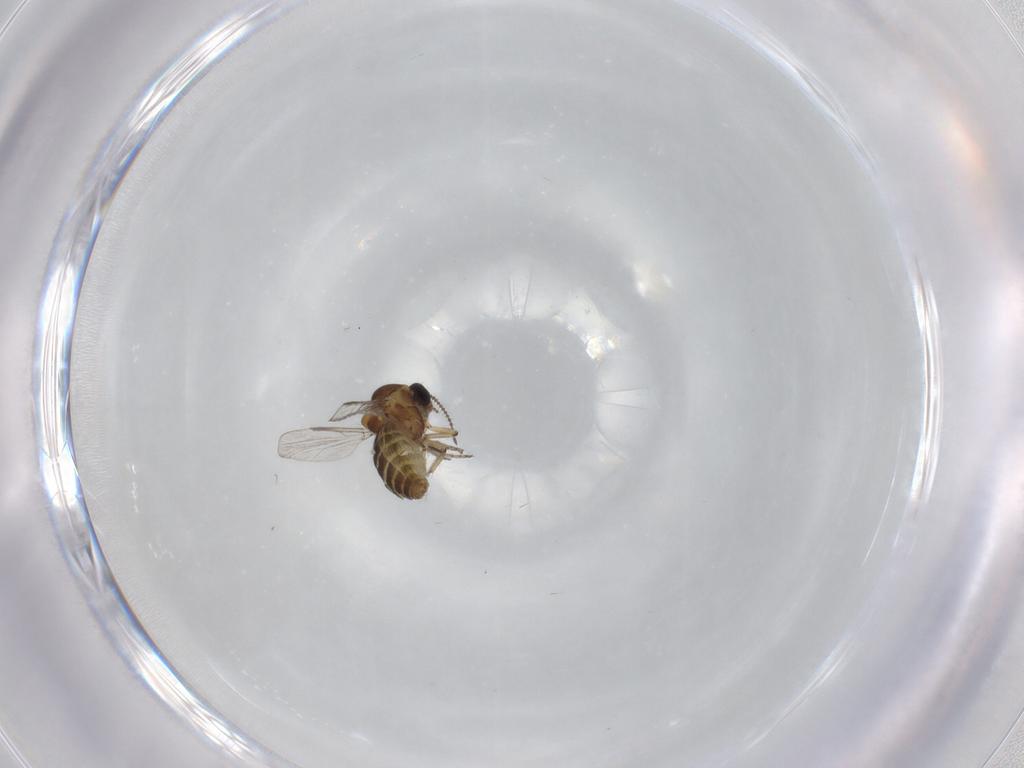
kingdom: Animalia
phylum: Arthropoda
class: Insecta
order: Diptera
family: Ceratopogonidae
